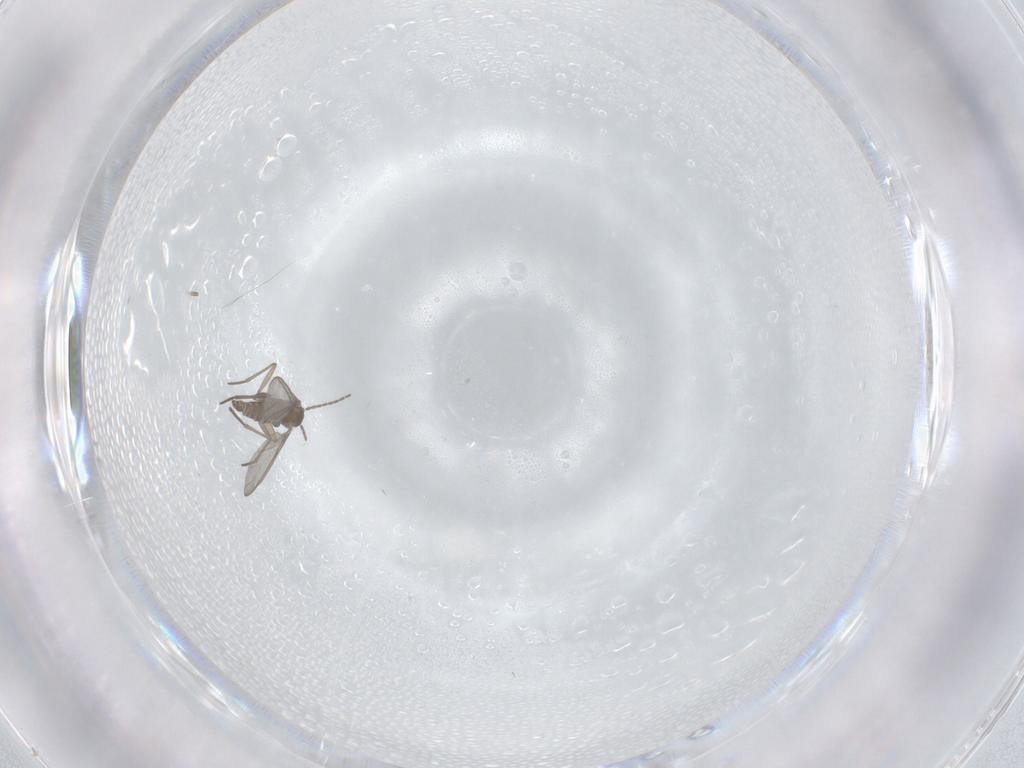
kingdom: Animalia
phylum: Arthropoda
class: Insecta
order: Diptera
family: Sciaridae
